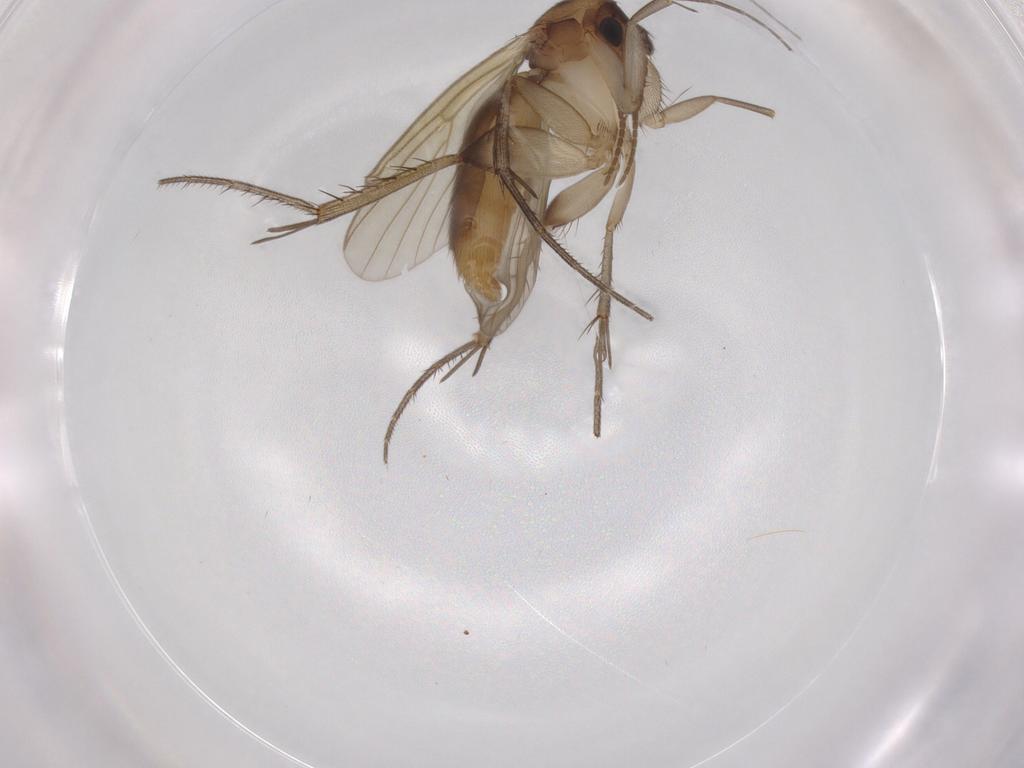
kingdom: Animalia
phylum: Arthropoda
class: Insecta
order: Diptera
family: Mycetophilidae
